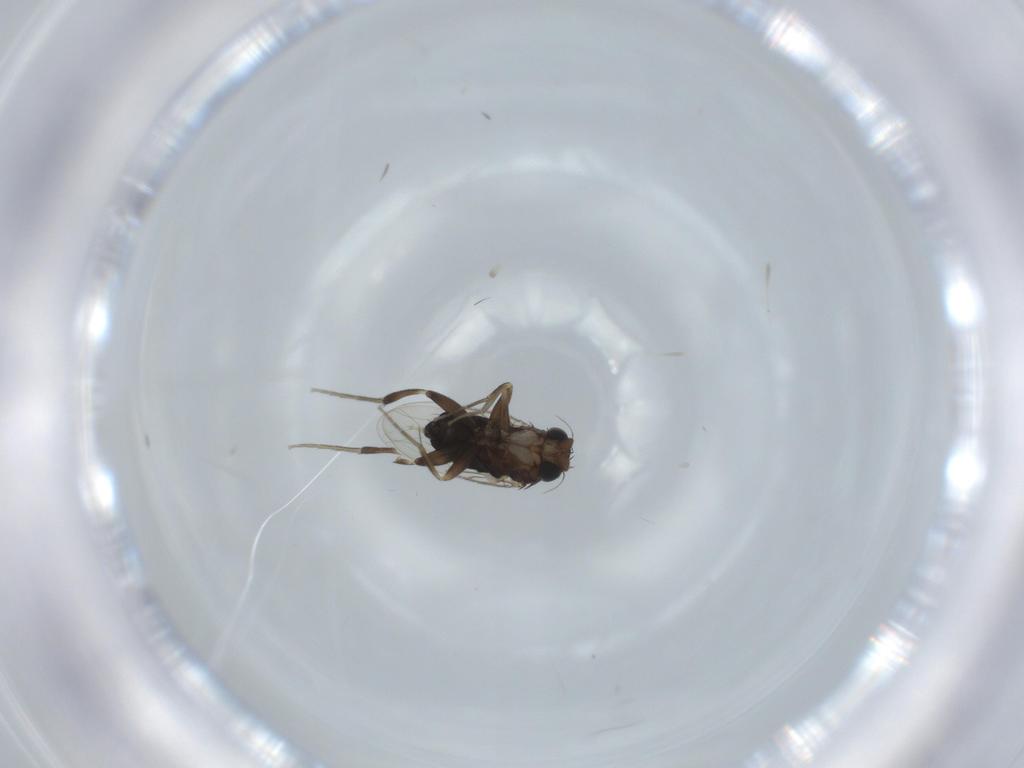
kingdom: Animalia
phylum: Arthropoda
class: Insecta
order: Diptera
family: Phoridae
